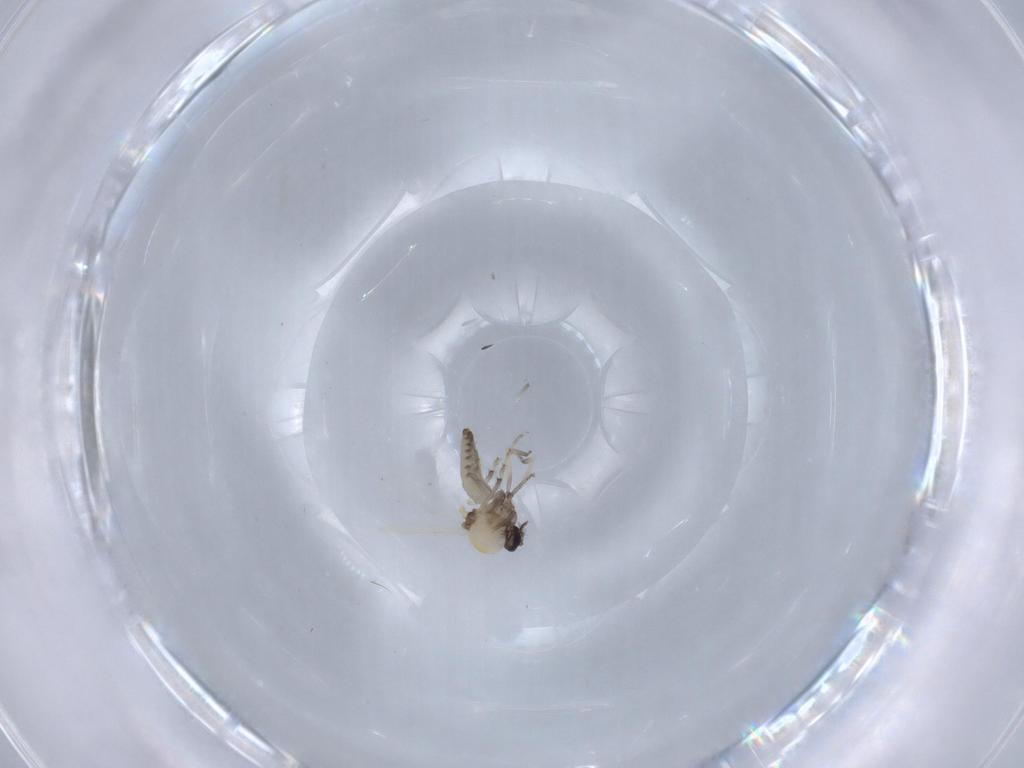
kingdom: Animalia
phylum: Arthropoda
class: Insecta
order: Diptera
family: Ceratopogonidae
